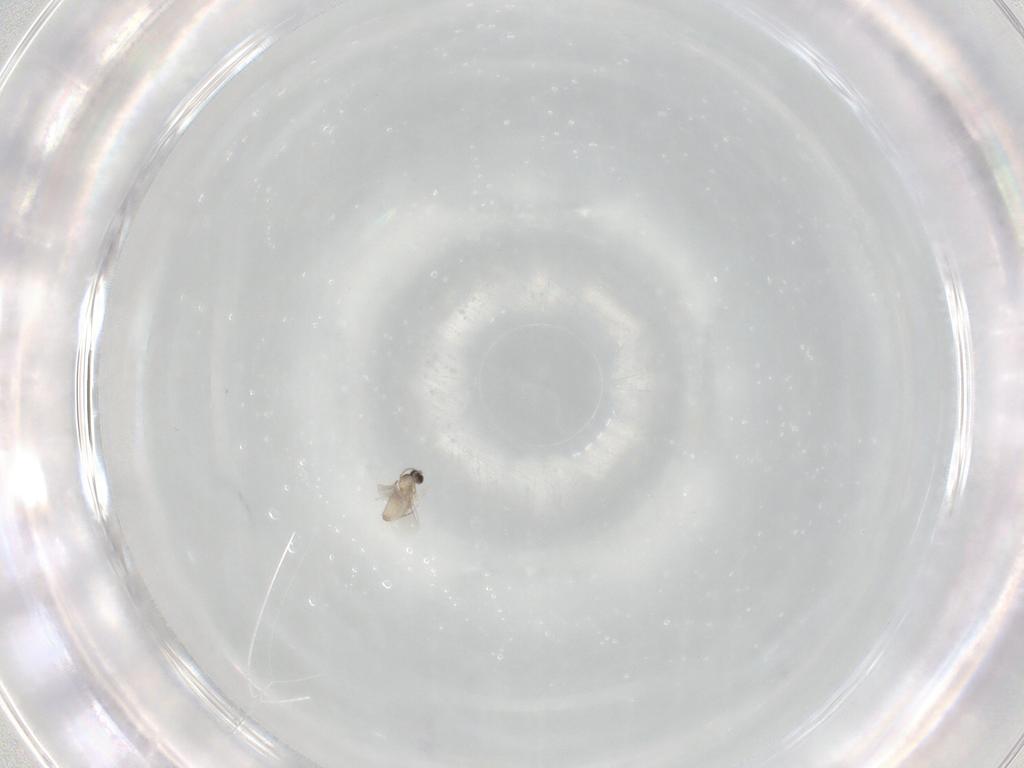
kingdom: Animalia
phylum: Arthropoda
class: Insecta
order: Diptera
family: Cecidomyiidae
